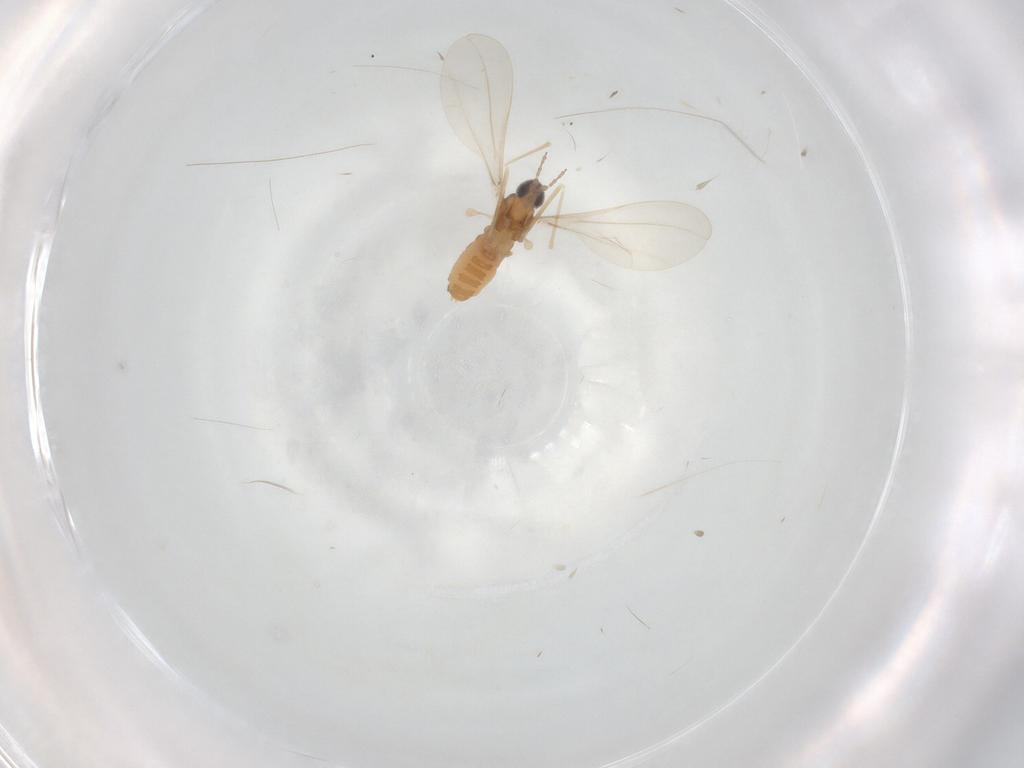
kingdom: Animalia
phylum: Arthropoda
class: Insecta
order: Diptera
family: Cecidomyiidae
